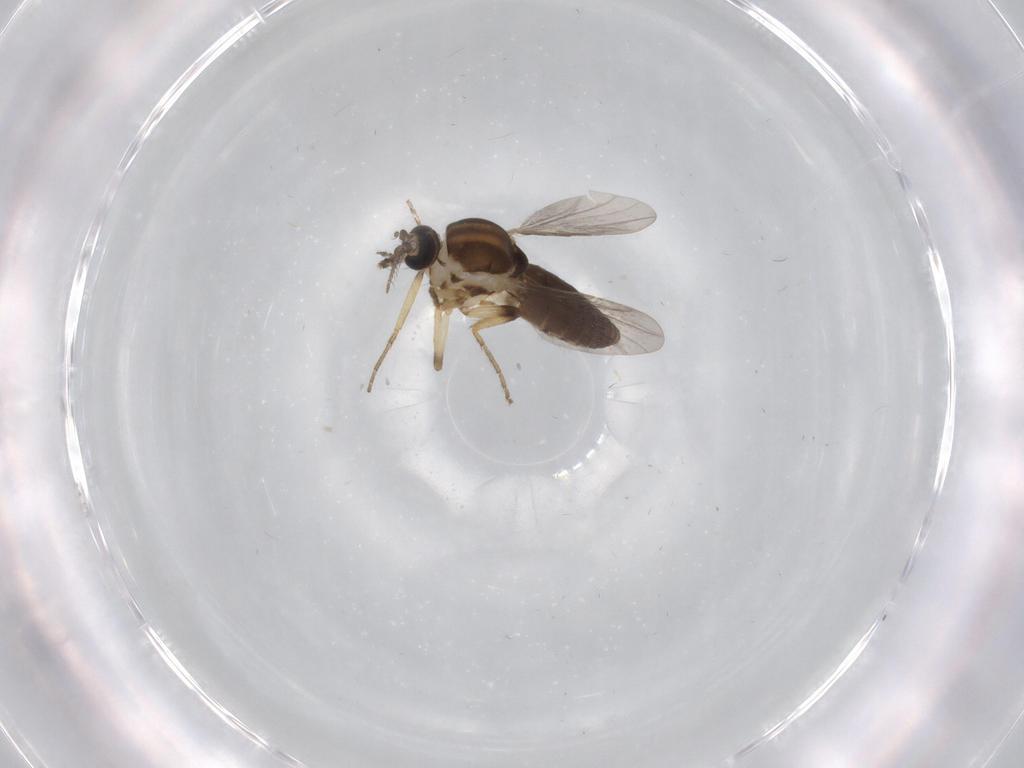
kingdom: Animalia
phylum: Arthropoda
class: Insecta
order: Diptera
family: Ceratopogonidae
